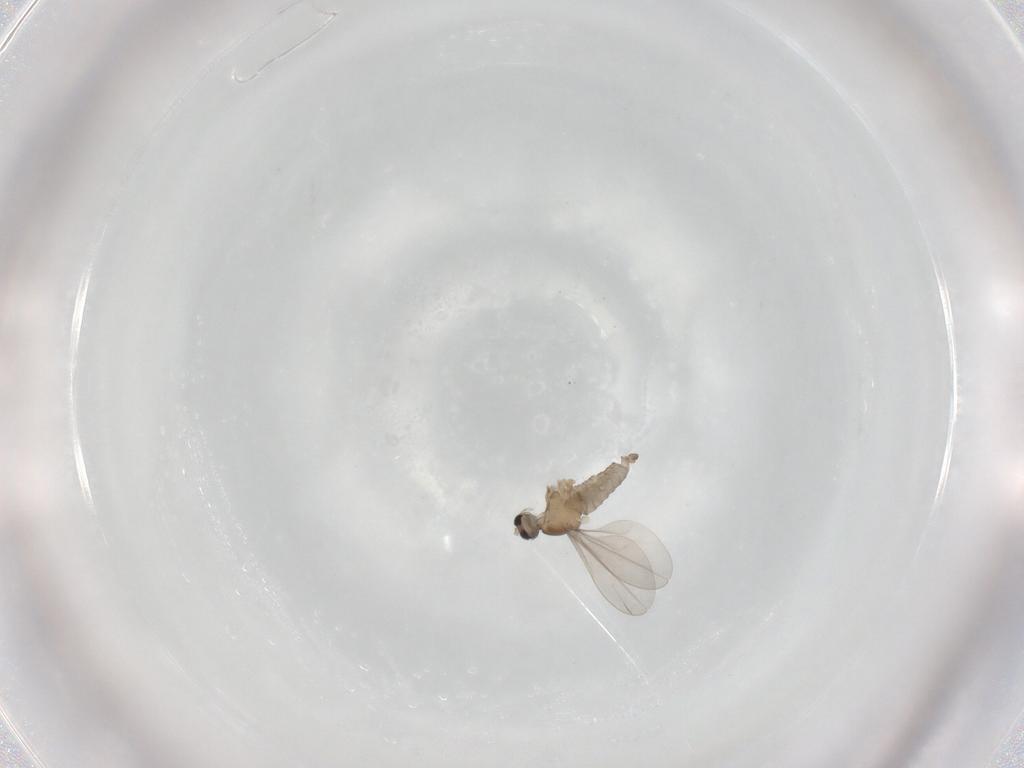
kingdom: Animalia
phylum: Arthropoda
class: Insecta
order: Diptera
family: Cecidomyiidae
